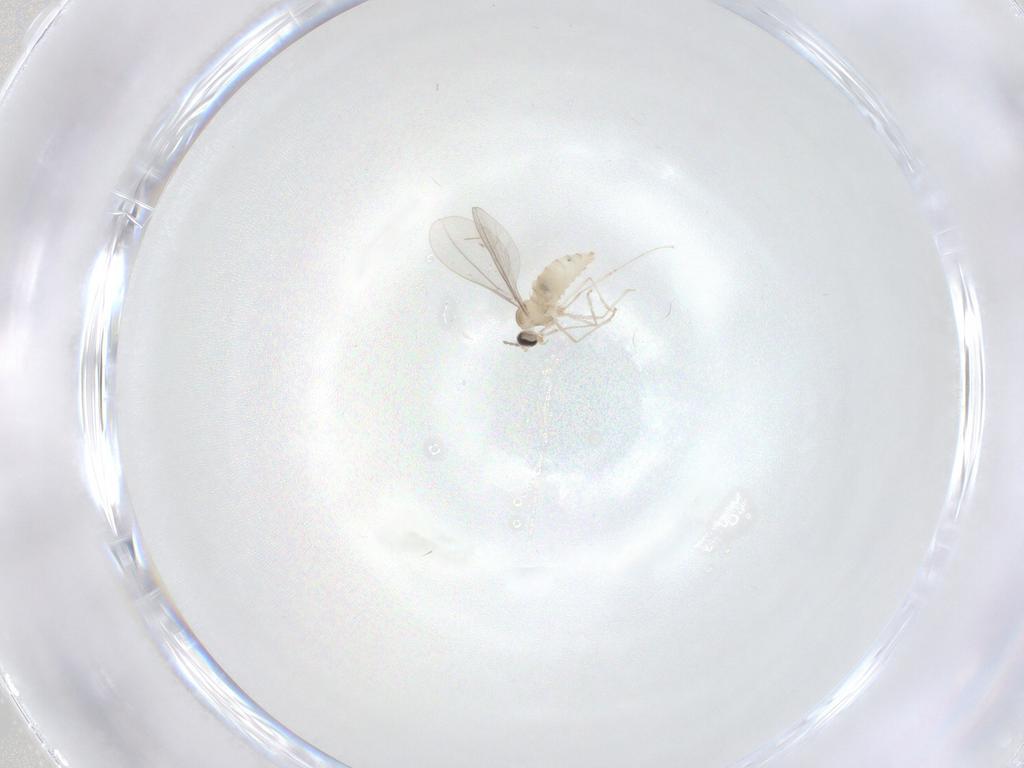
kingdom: Animalia
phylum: Arthropoda
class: Insecta
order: Diptera
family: Cecidomyiidae
